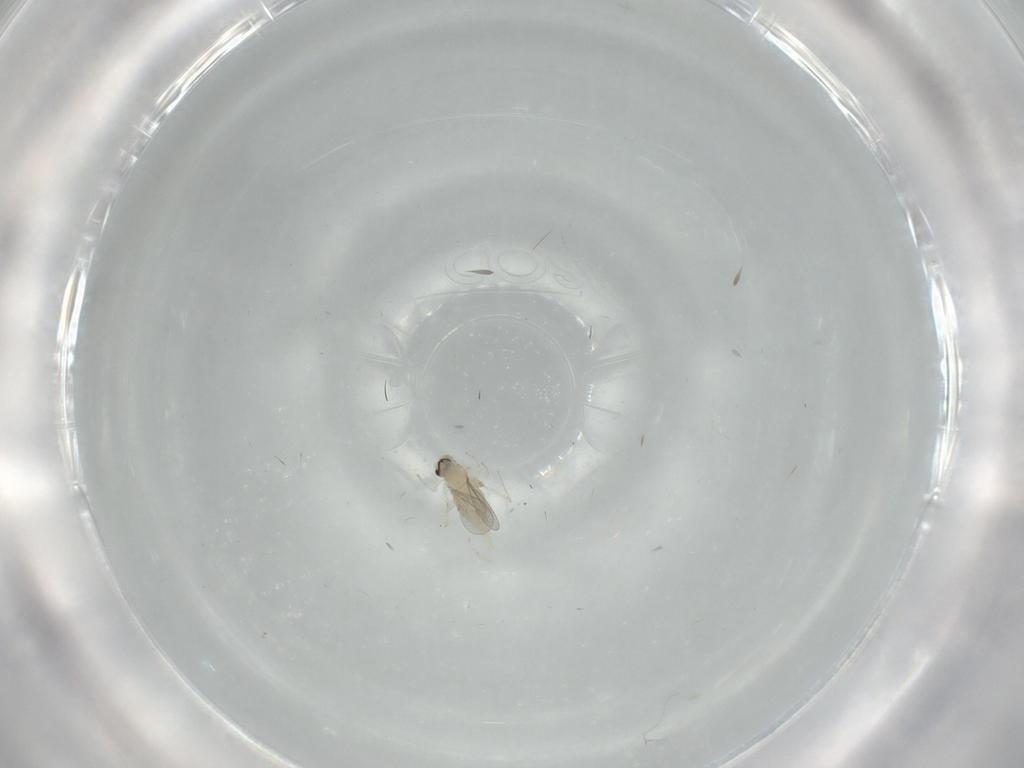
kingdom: Animalia
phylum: Arthropoda
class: Insecta
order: Diptera
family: Cecidomyiidae
